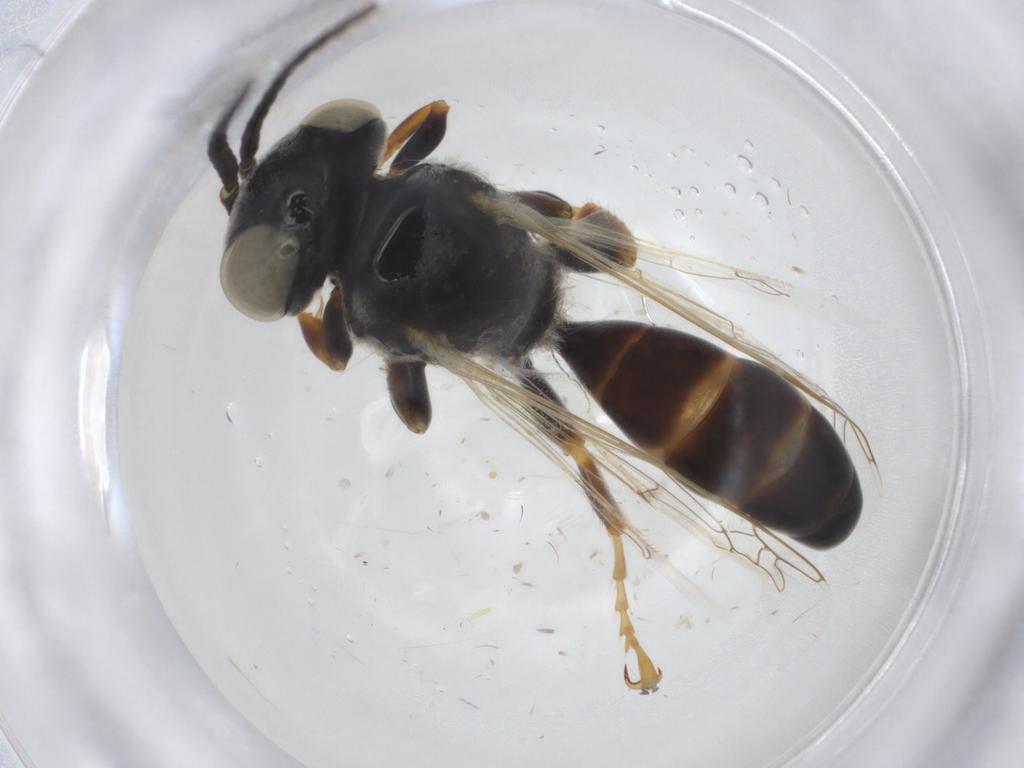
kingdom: Animalia
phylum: Arthropoda
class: Insecta
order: Hymenoptera
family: Crabronidae
